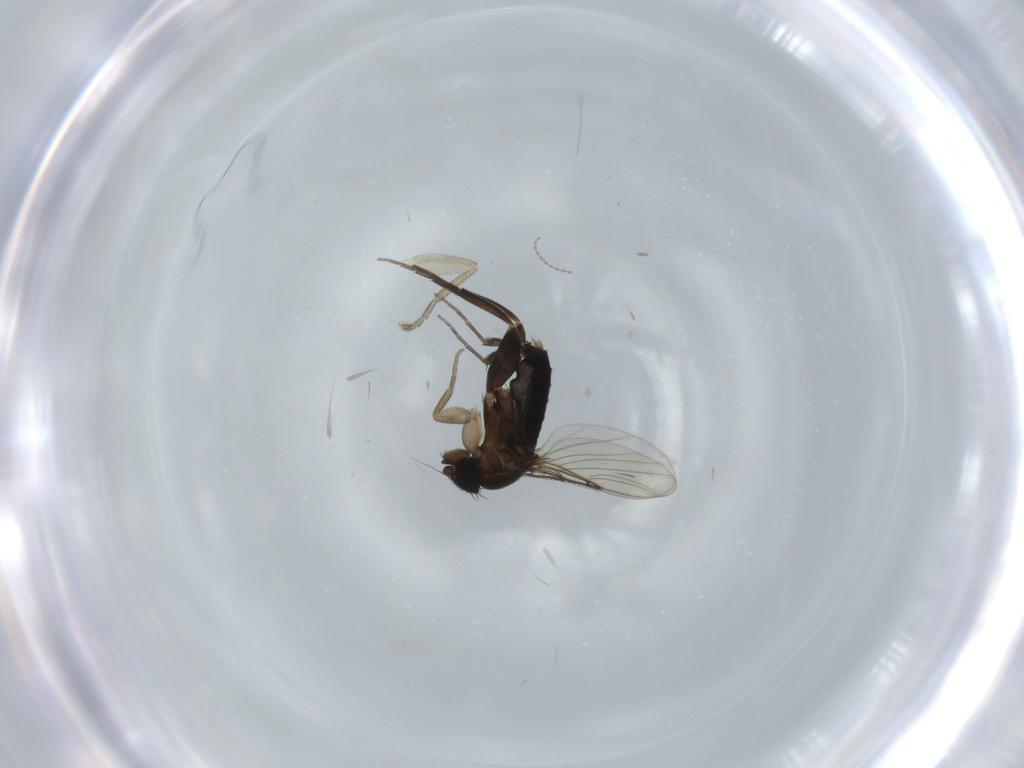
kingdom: Animalia
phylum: Arthropoda
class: Insecta
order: Diptera
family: Phoridae
